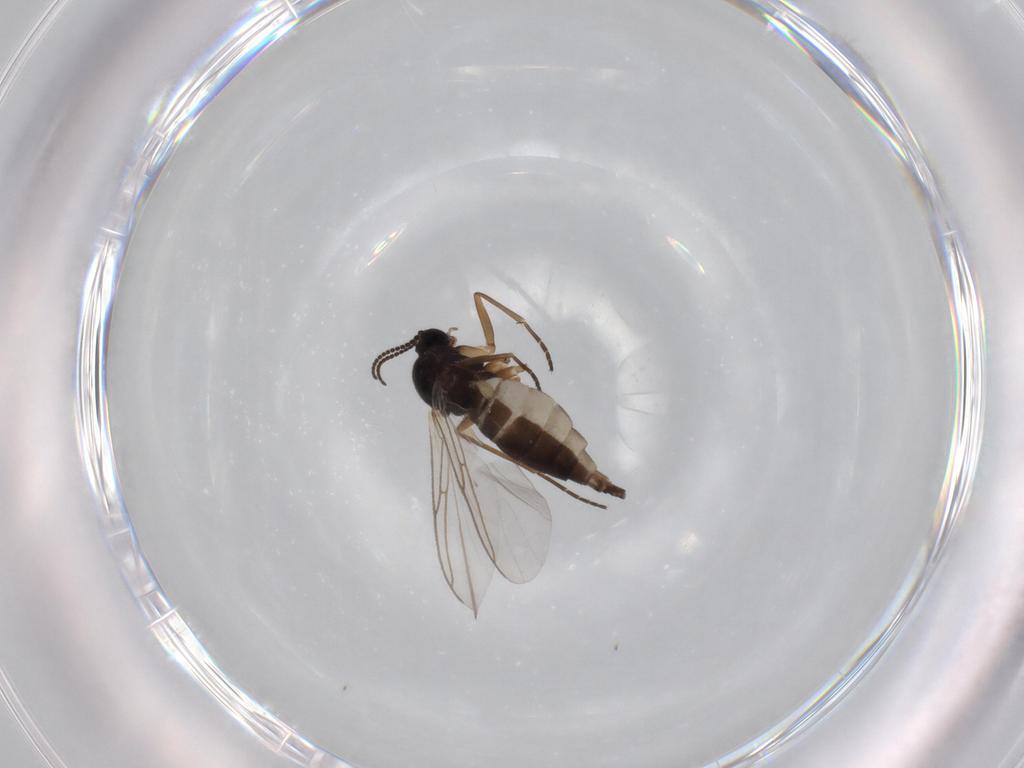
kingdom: Animalia
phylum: Arthropoda
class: Insecta
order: Diptera
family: Sciaridae
